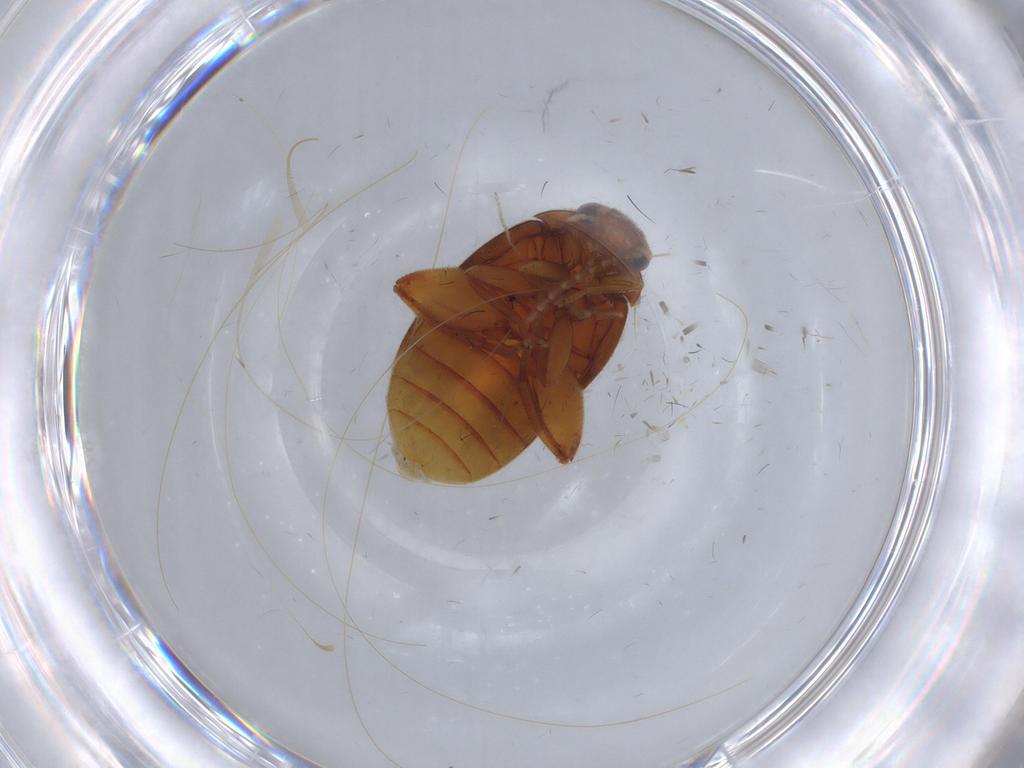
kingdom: Animalia
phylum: Arthropoda
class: Insecta
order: Coleoptera
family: Scirtidae
